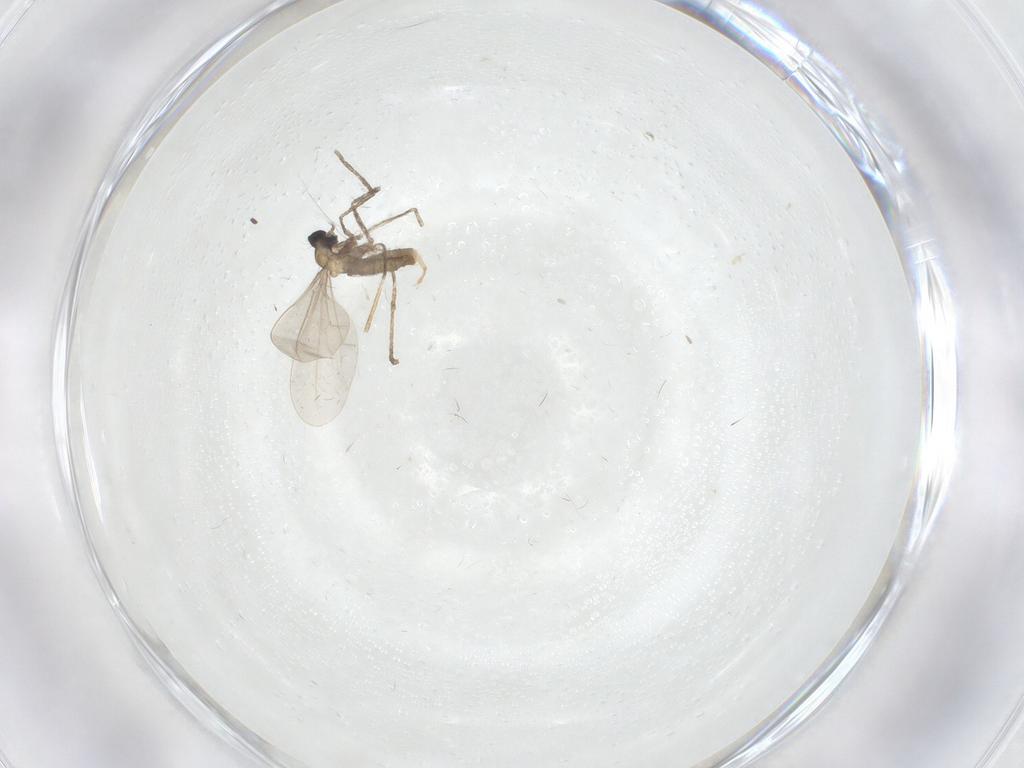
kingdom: Animalia
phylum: Arthropoda
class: Insecta
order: Diptera
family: Cecidomyiidae
